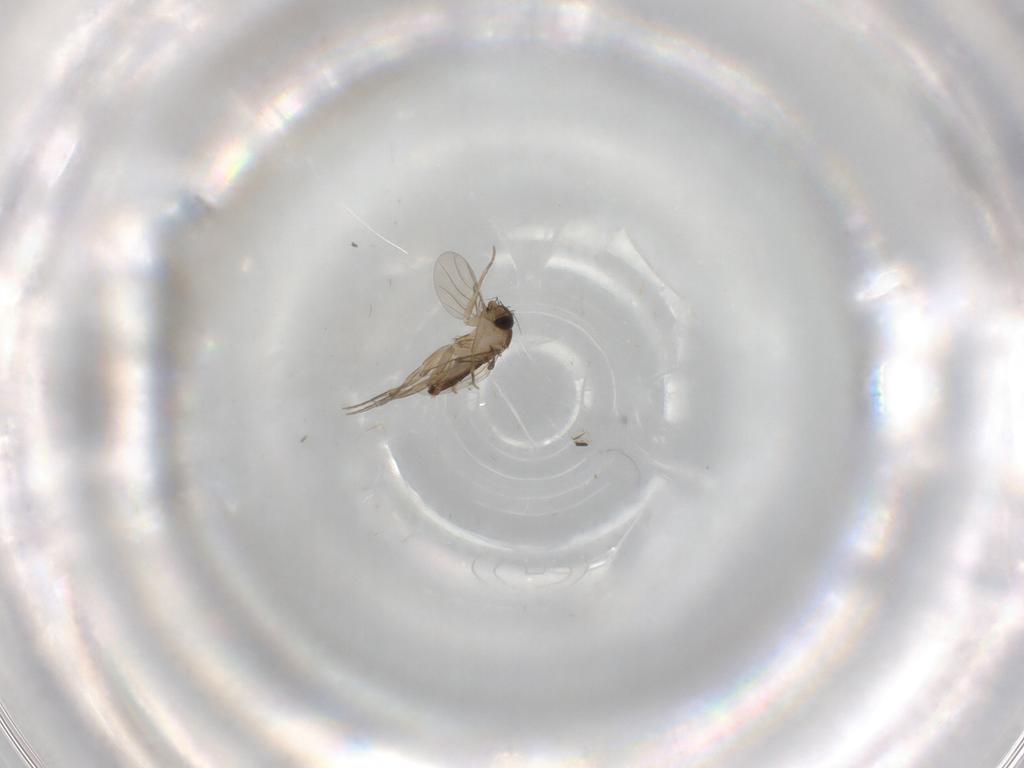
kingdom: Animalia
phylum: Arthropoda
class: Insecta
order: Diptera
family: Phoridae
